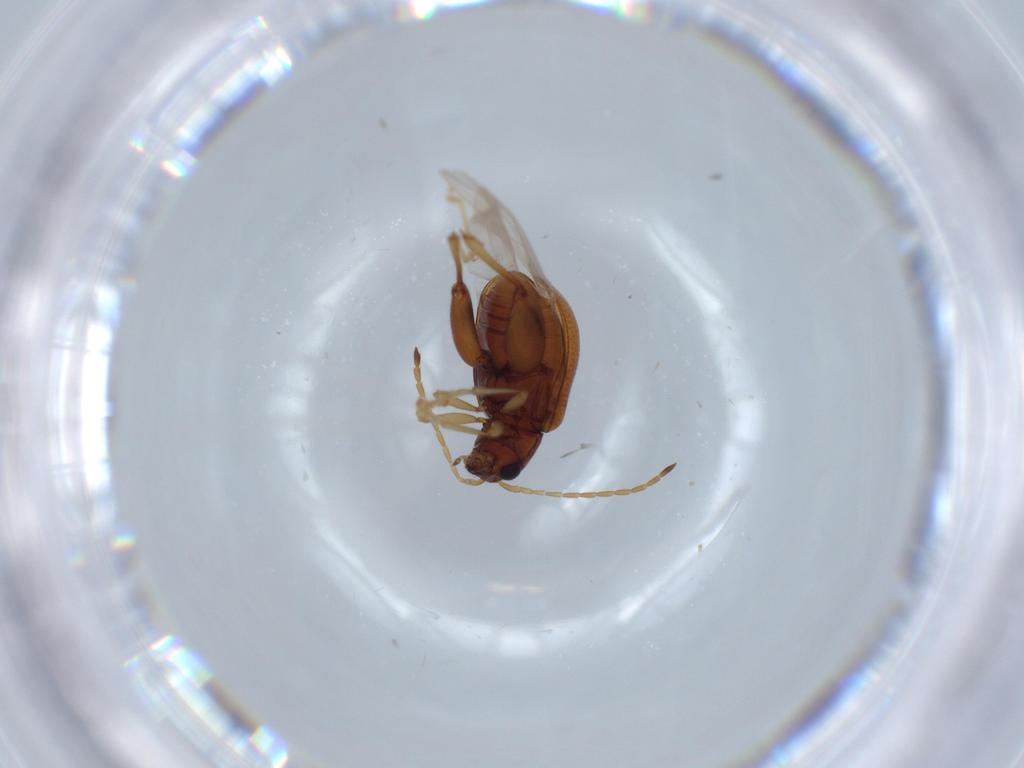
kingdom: Animalia
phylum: Arthropoda
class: Insecta
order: Coleoptera
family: Chrysomelidae
